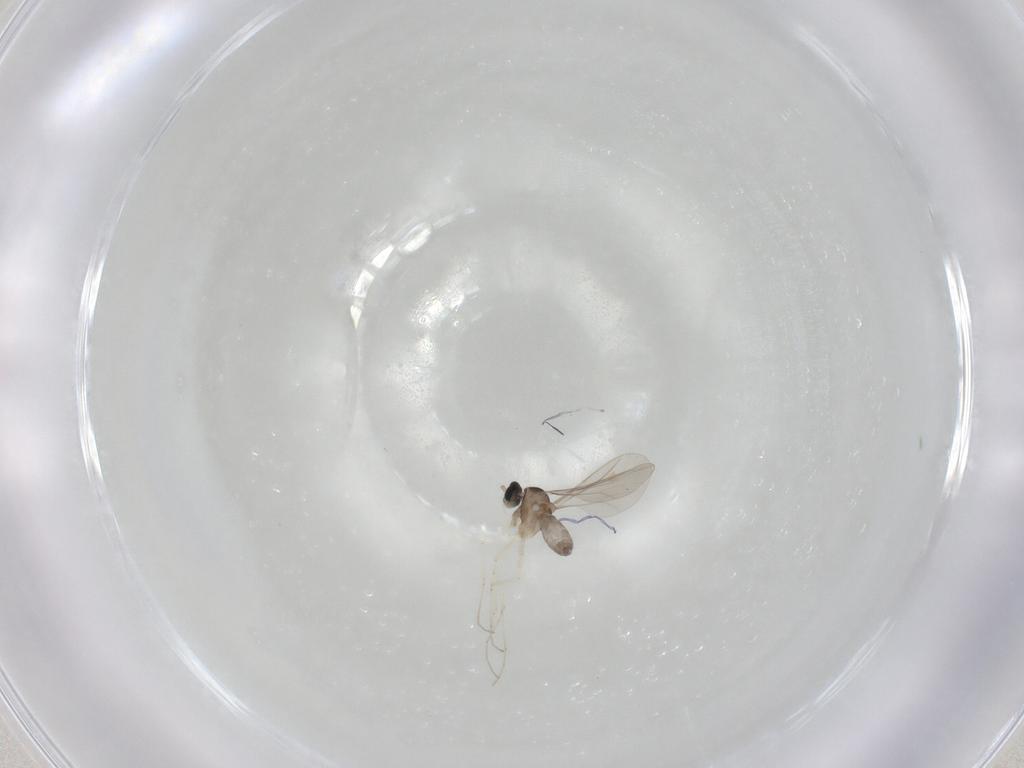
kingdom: Animalia
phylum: Arthropoda
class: Insecta
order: Diptera
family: Cecidomyiidae
